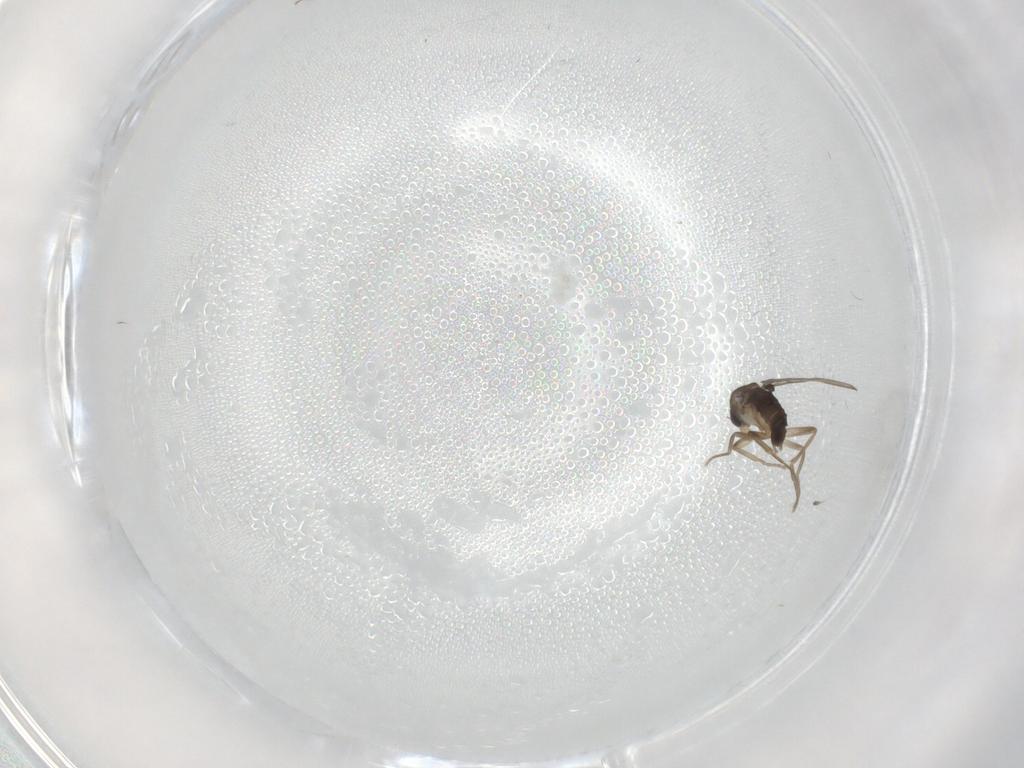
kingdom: Animalia
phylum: Arthropoda
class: Insecta
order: Diptera
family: Phoridae
